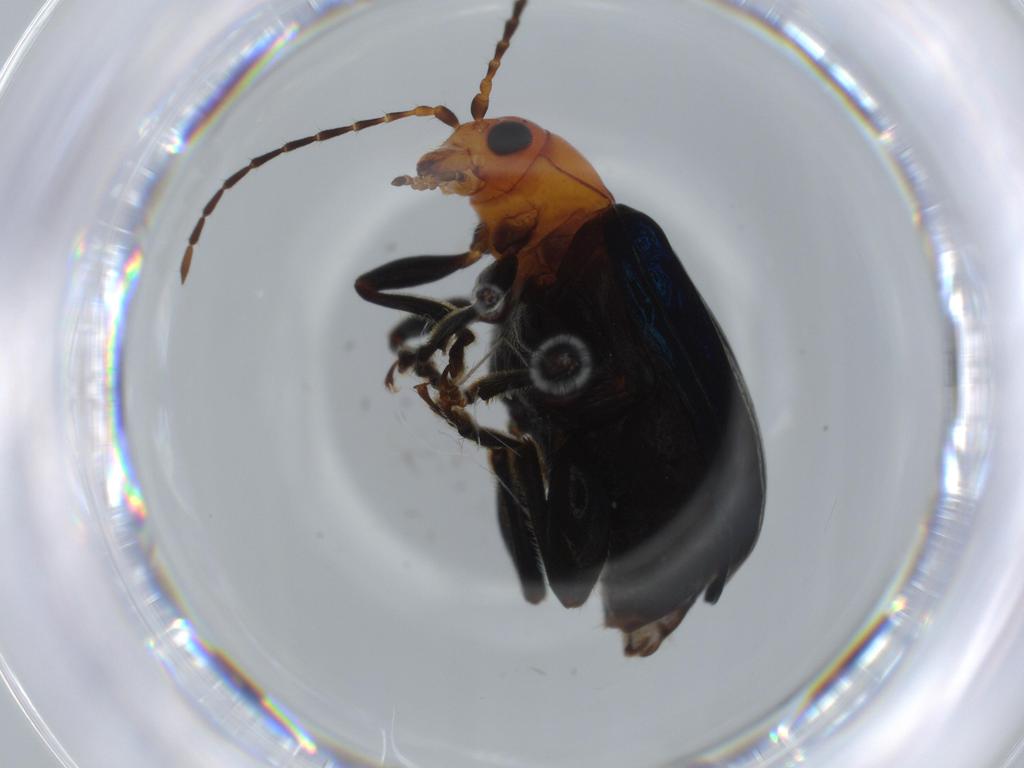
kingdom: Animalia
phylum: Arthropoda
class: Insecta
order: Coleoptera
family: Chrysomelidae
